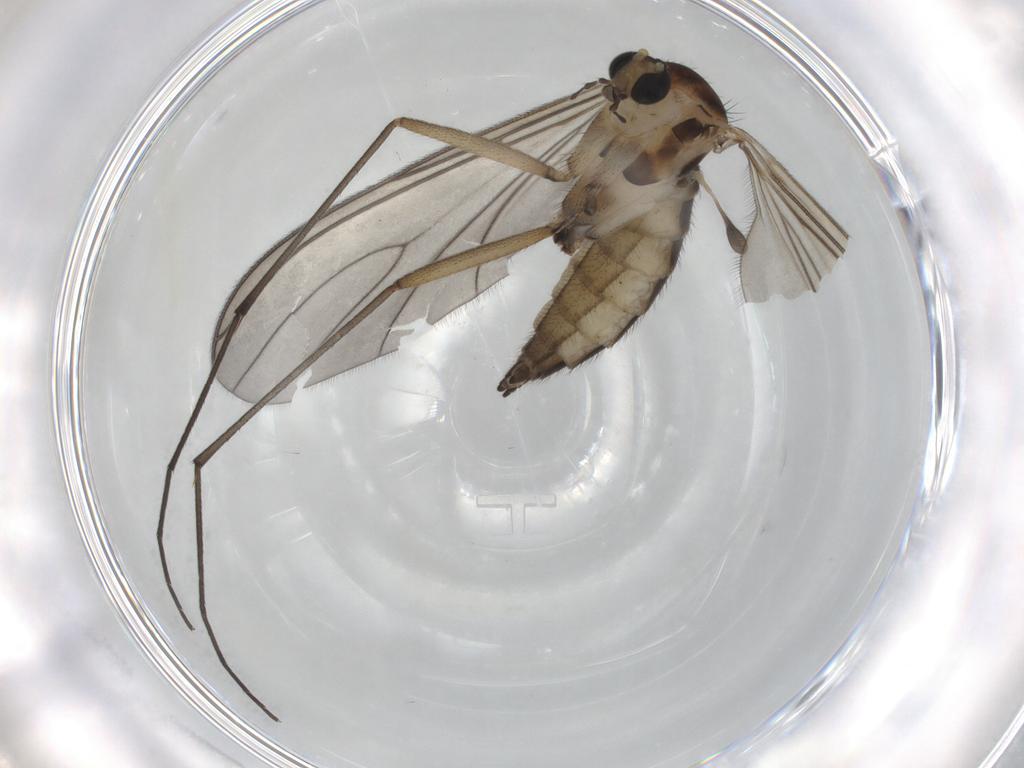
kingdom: Animalia
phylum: Arthropoda
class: Insecta
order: Diptera
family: Sciaridae
